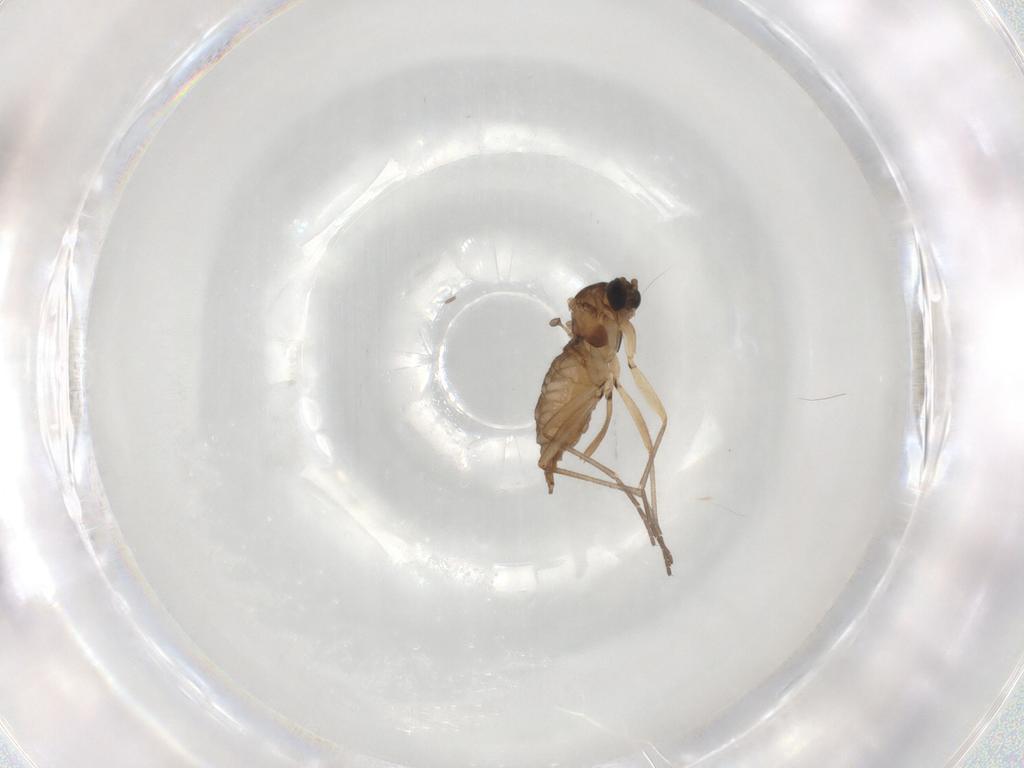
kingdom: Animalia
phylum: Arthropoda
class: Insecta
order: Diptera
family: Sciaridae
